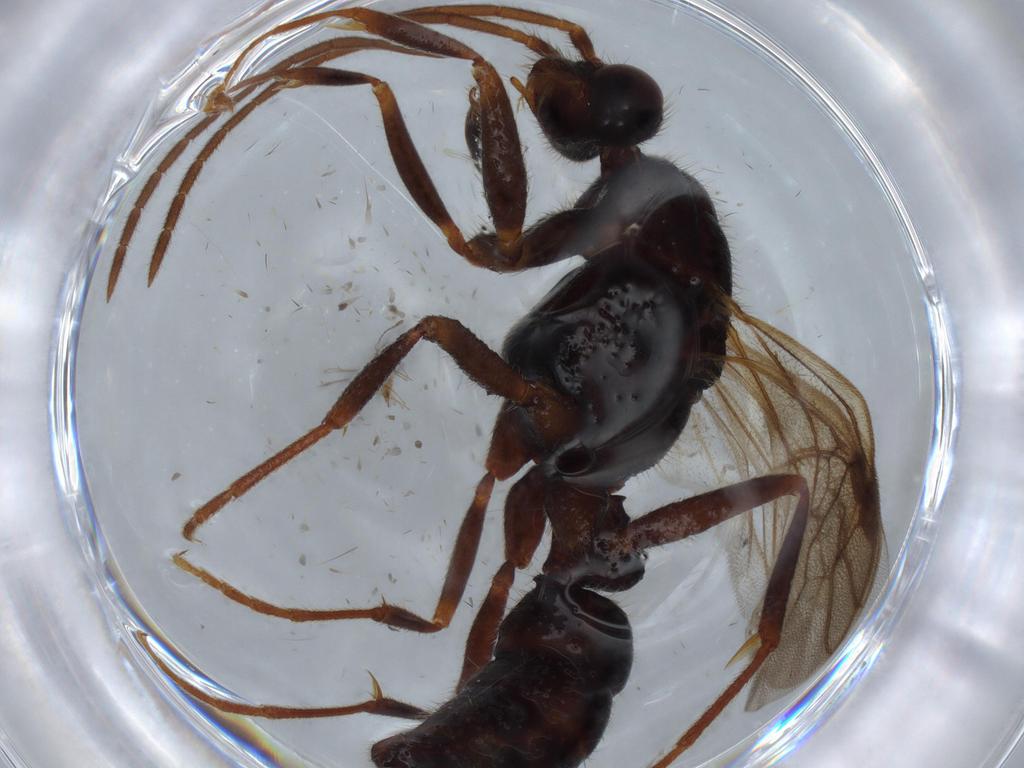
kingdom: Animalia
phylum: Arthropoda
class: Insecta
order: Hymenoptera
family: Formicidae
